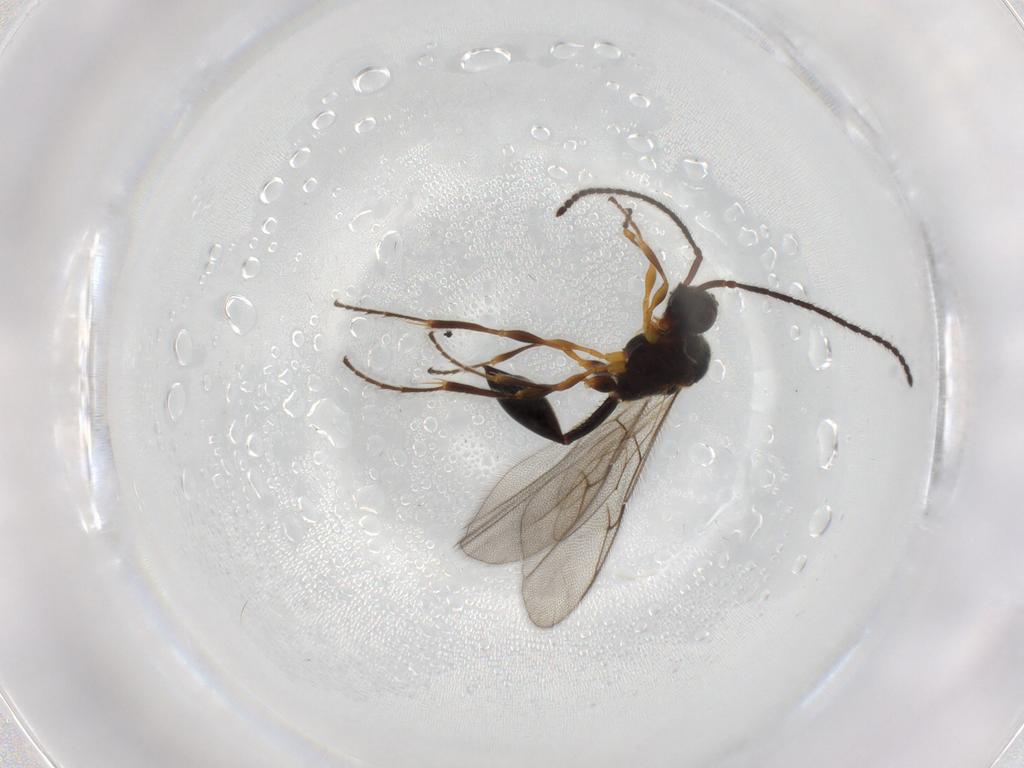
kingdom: Animalia
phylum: Arthropoda
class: Insecta
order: Hymenoptera
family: Diapriidae
